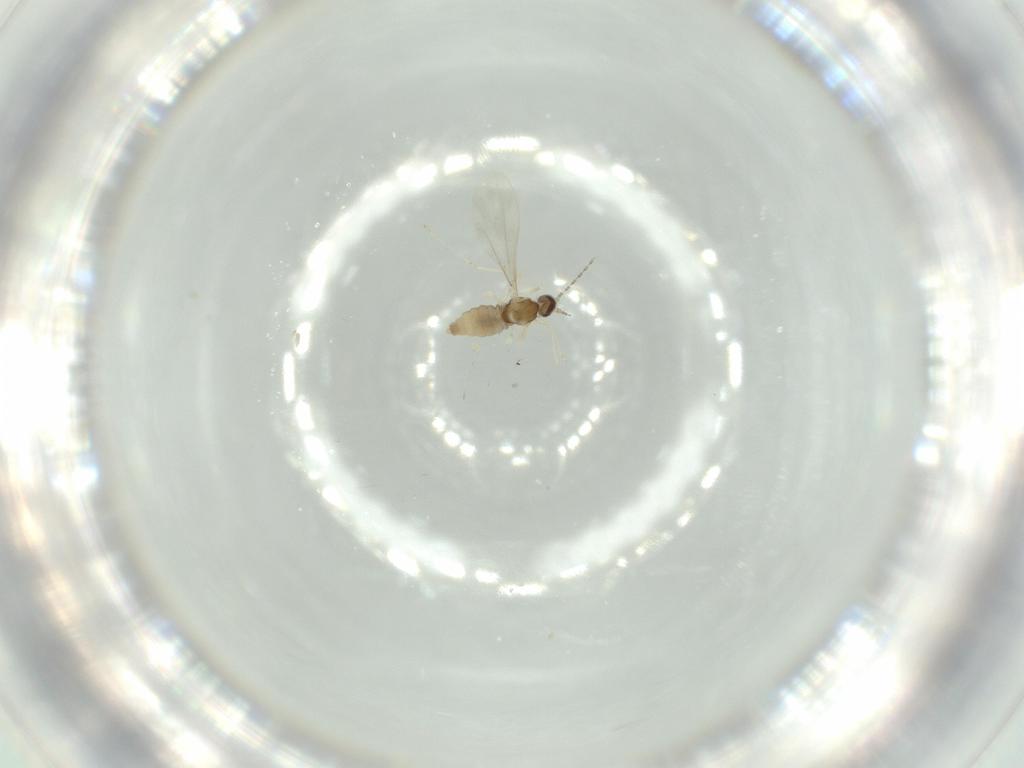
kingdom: Animalia
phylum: Arthropoda
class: Insecta
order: Diptera
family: Cecidomyiidae
